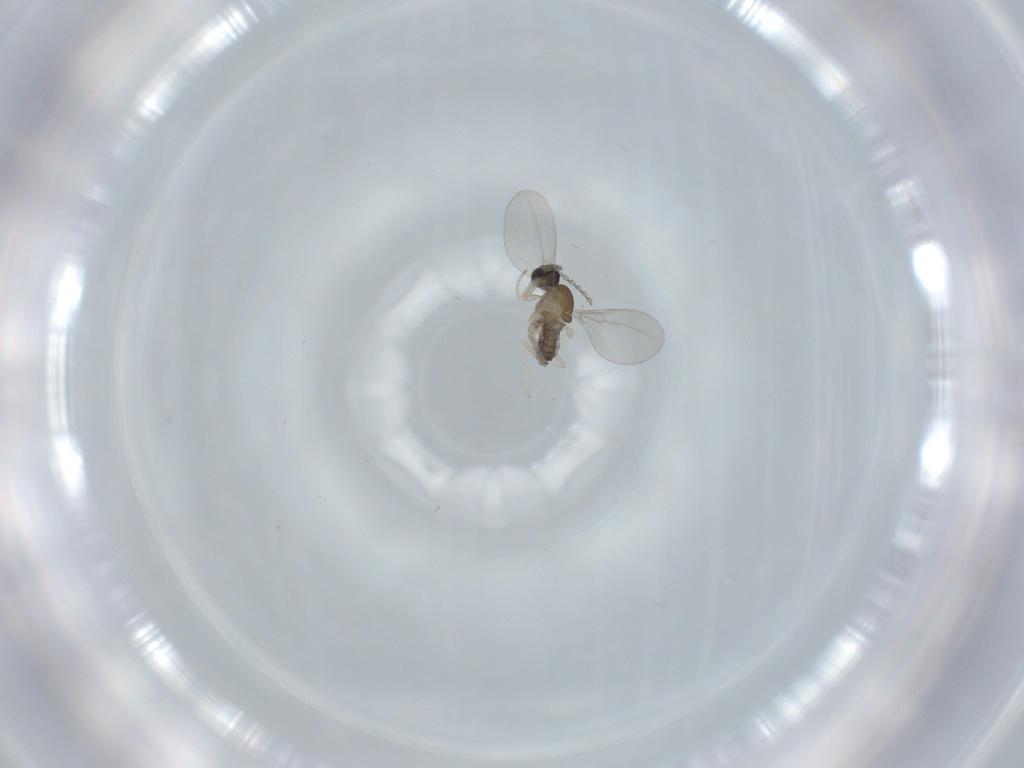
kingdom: Animalia
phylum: Arthropoda
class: Insecta
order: Diptera
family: Cecidomyiidae
